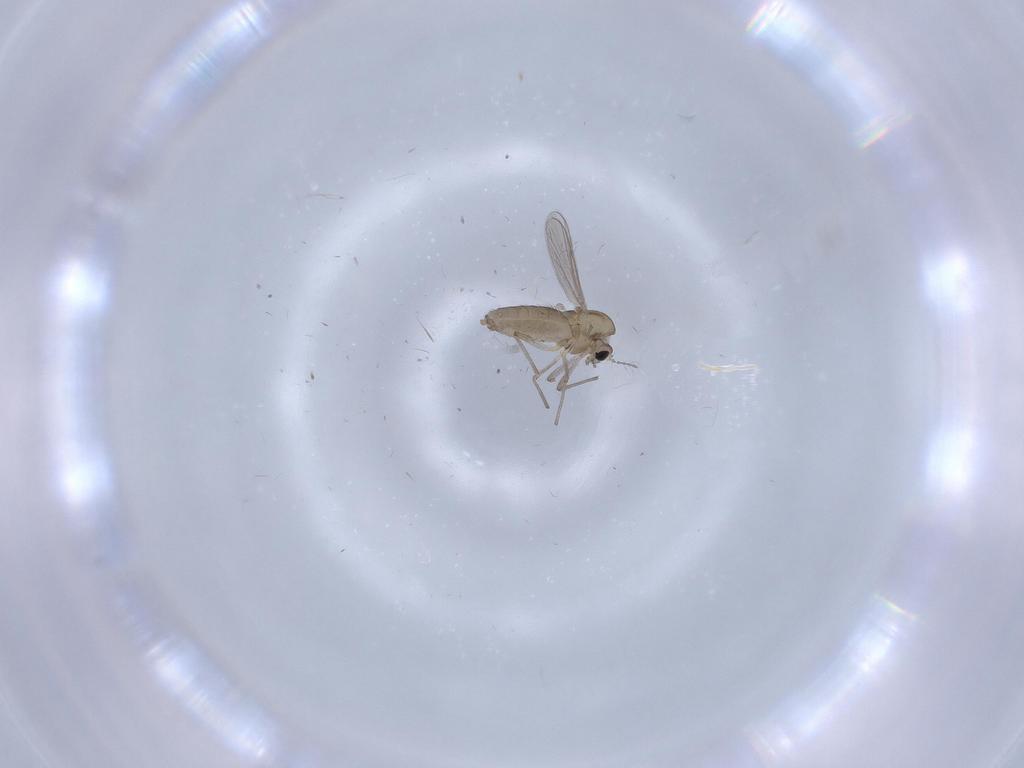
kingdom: Animalia
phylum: Arthropoda
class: Insecta
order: Diptera
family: Chironomidae
